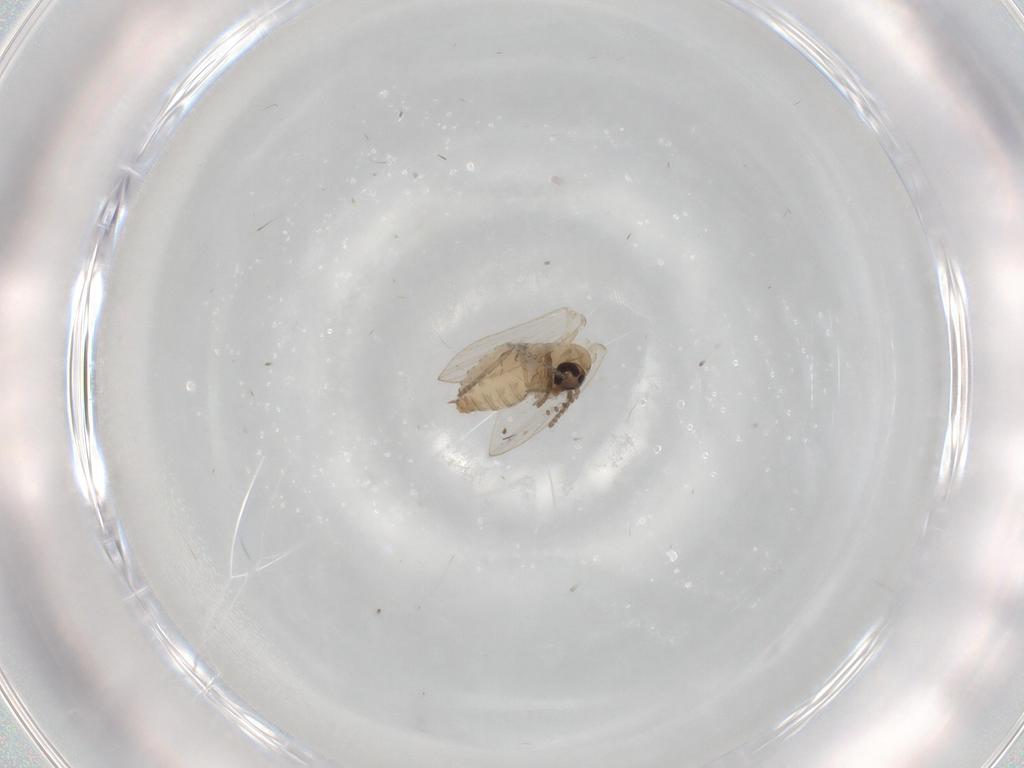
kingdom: Animalia
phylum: Arthropoda
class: Insecta
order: Diptera
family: Psychodidae
